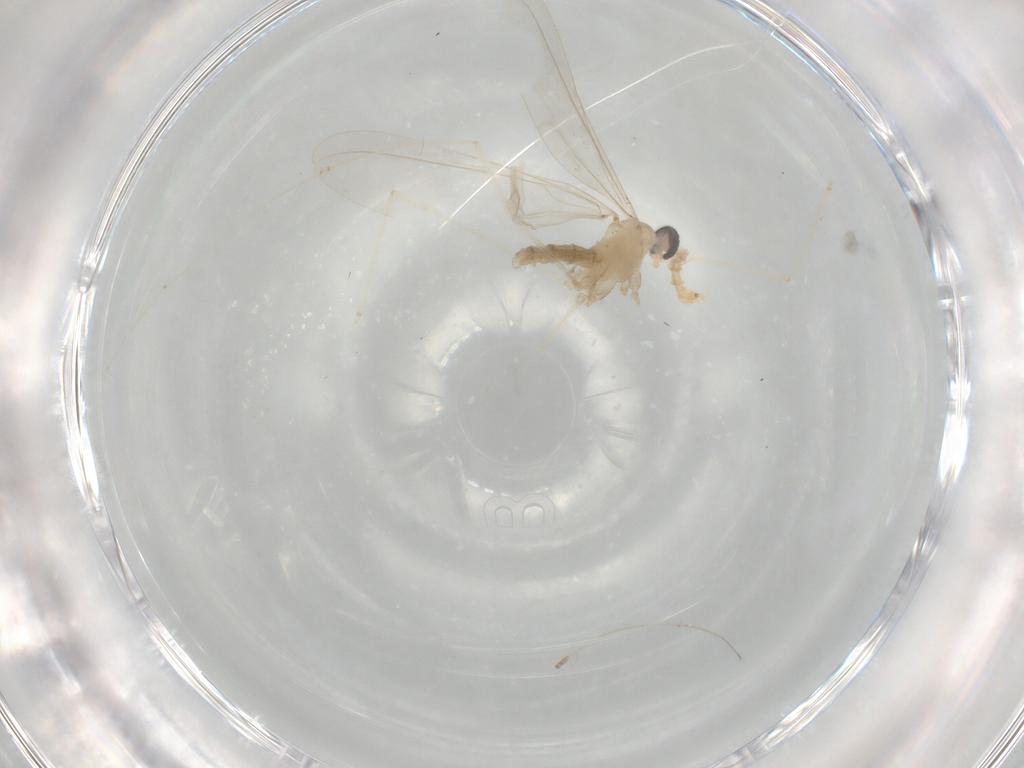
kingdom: Animalia
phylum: Arthropoda
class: Insecta
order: Diptera
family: Cecidomyiidae
